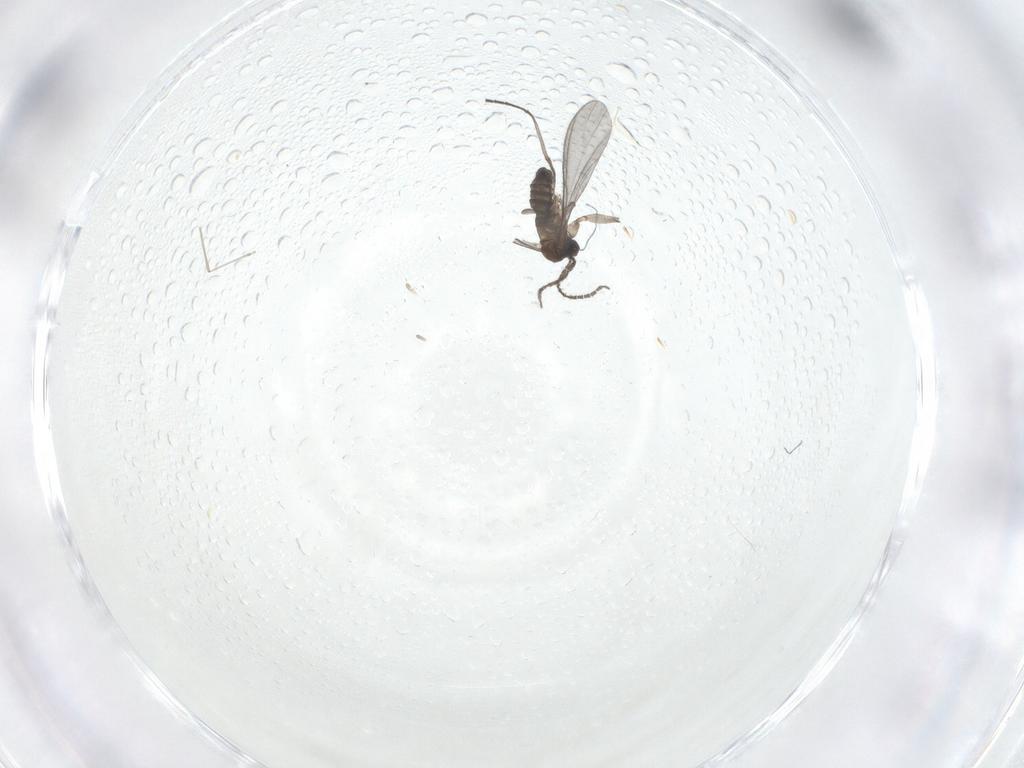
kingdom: Animalia
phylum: Arthropoda
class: Insecta
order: Diptera
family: Sciaridae
